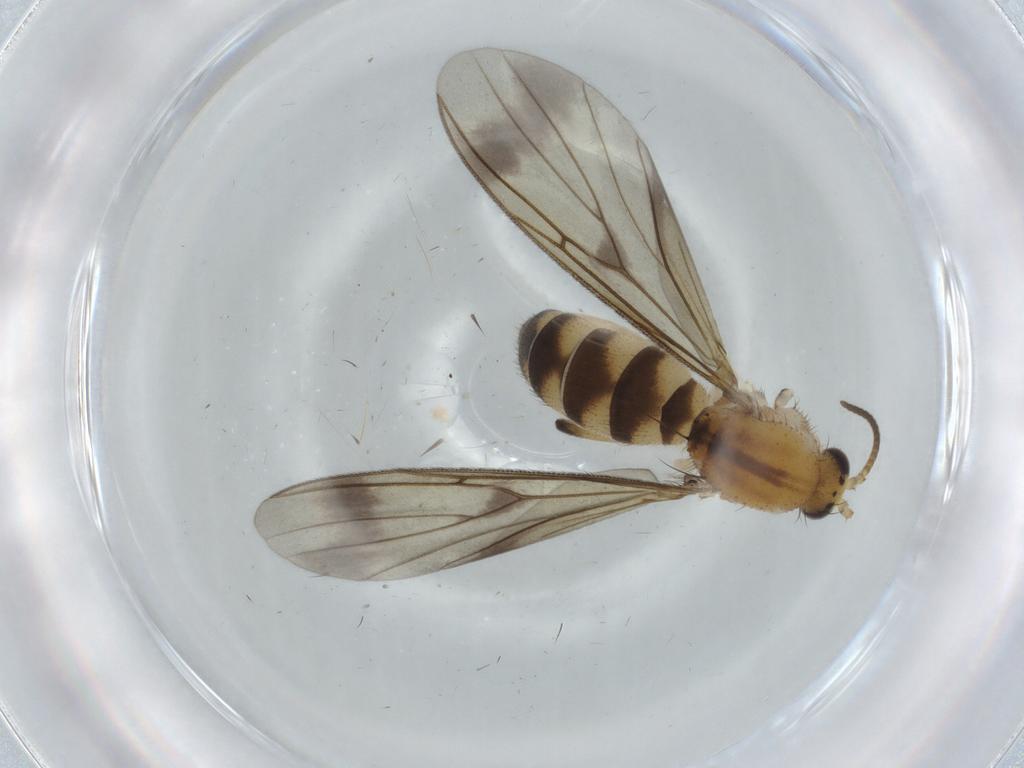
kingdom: Animalia
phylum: Arthropoda
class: Insecta
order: Diptera
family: Mycetophilidae
